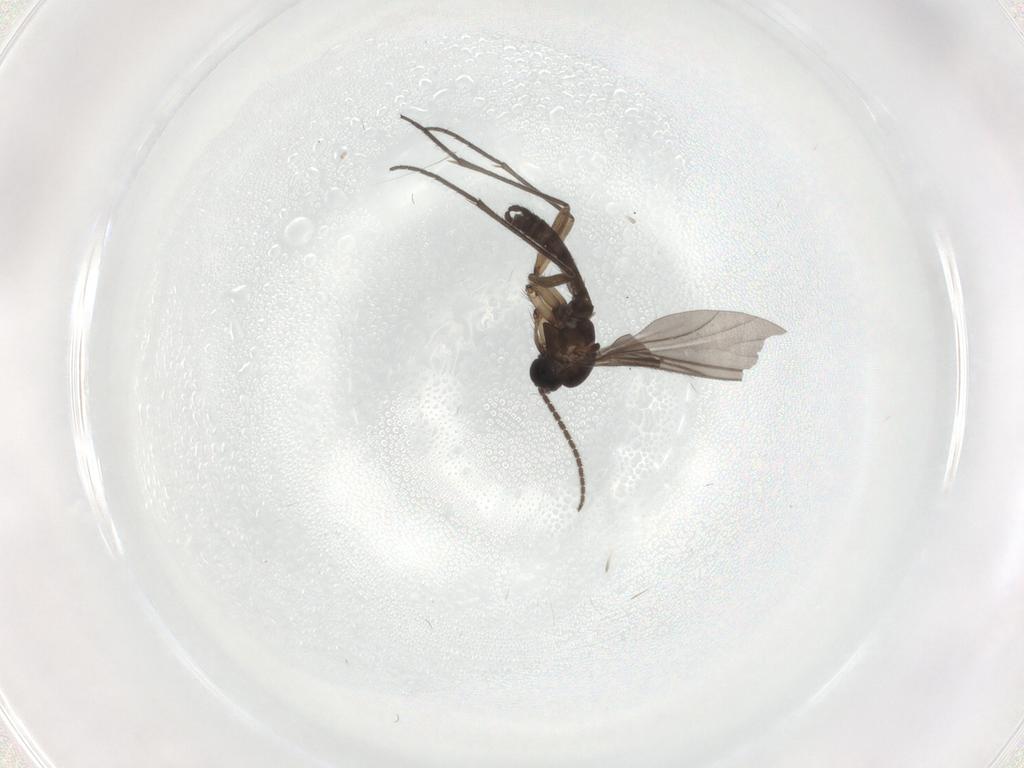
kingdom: Animalia
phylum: Arthropoda
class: Insecta
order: Diptera
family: Sciaridae
